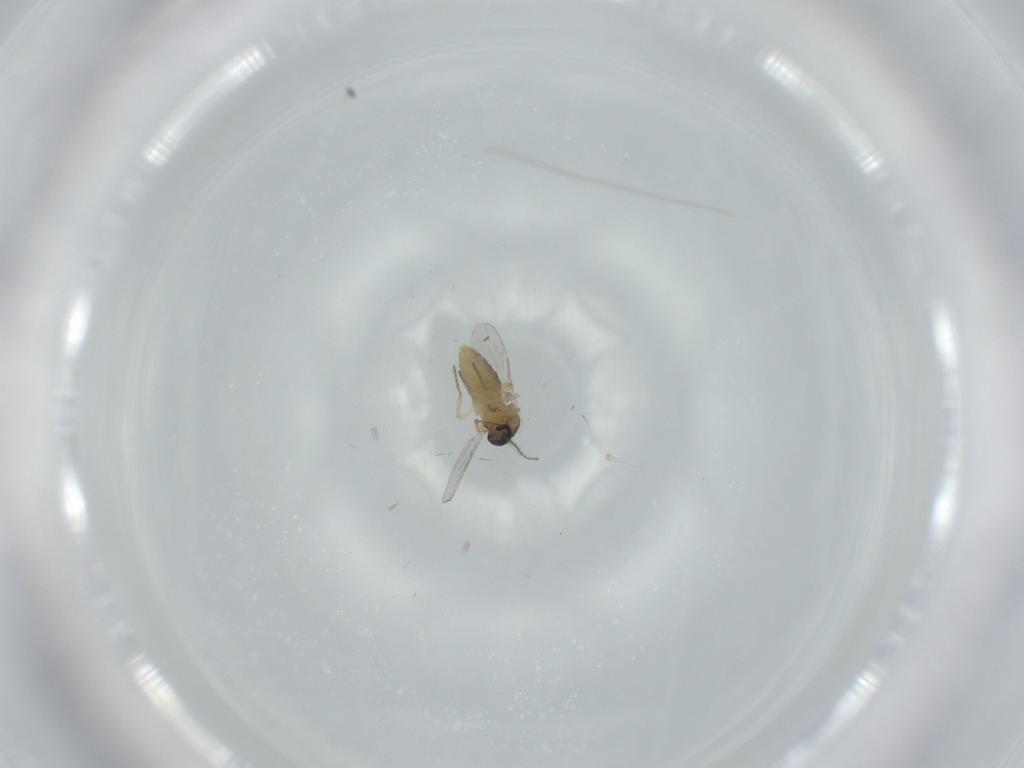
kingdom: Animalia
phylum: Arthropoda
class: Insecta
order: Diptera
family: Ceratopogonidae
